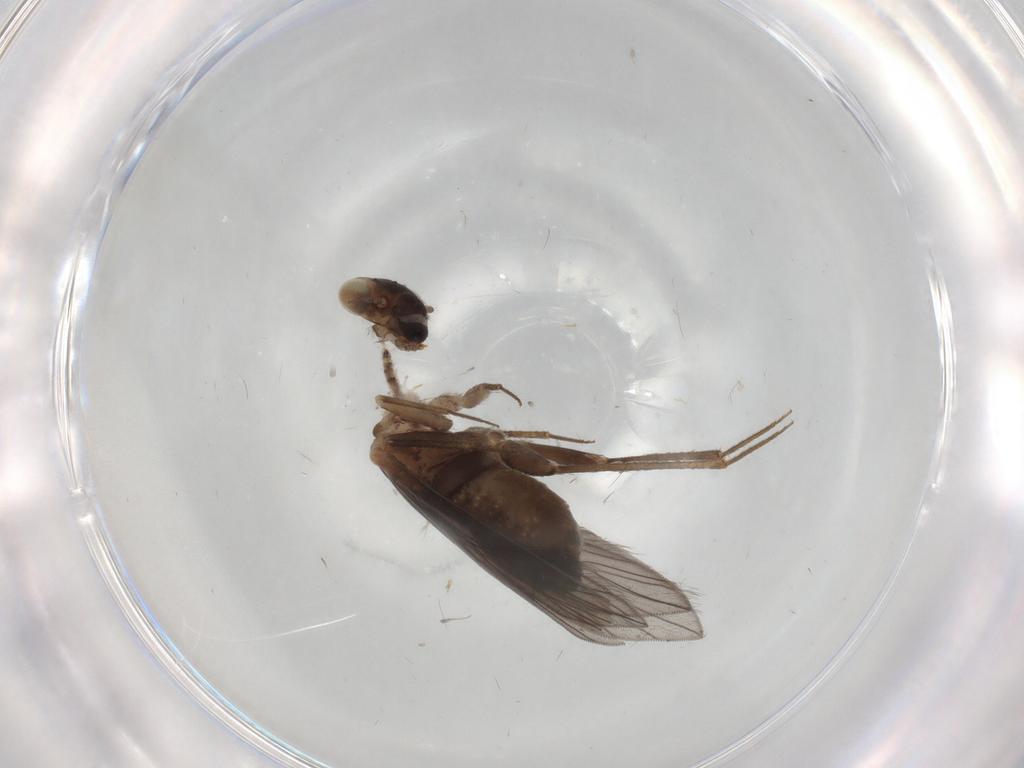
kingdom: Animalia
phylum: Arthropoda
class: Insecta
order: Psocodea
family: Lepidopsocidae
